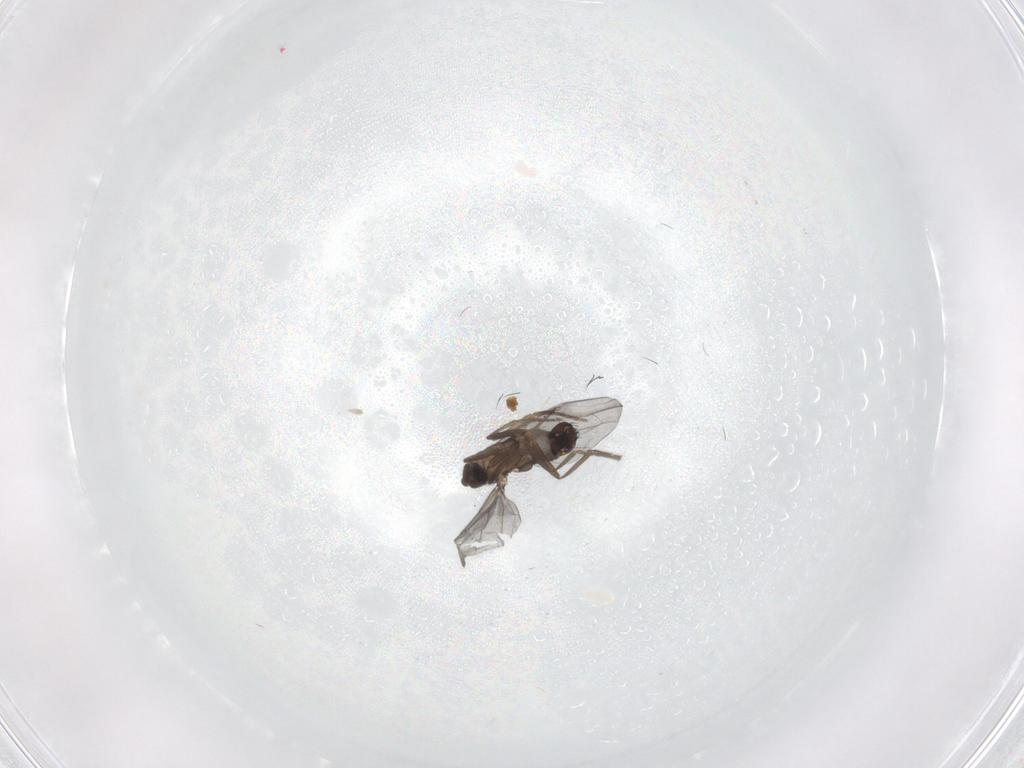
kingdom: Animalia
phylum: Arthropoda
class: Insecta
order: Diptera
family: Phoridae
